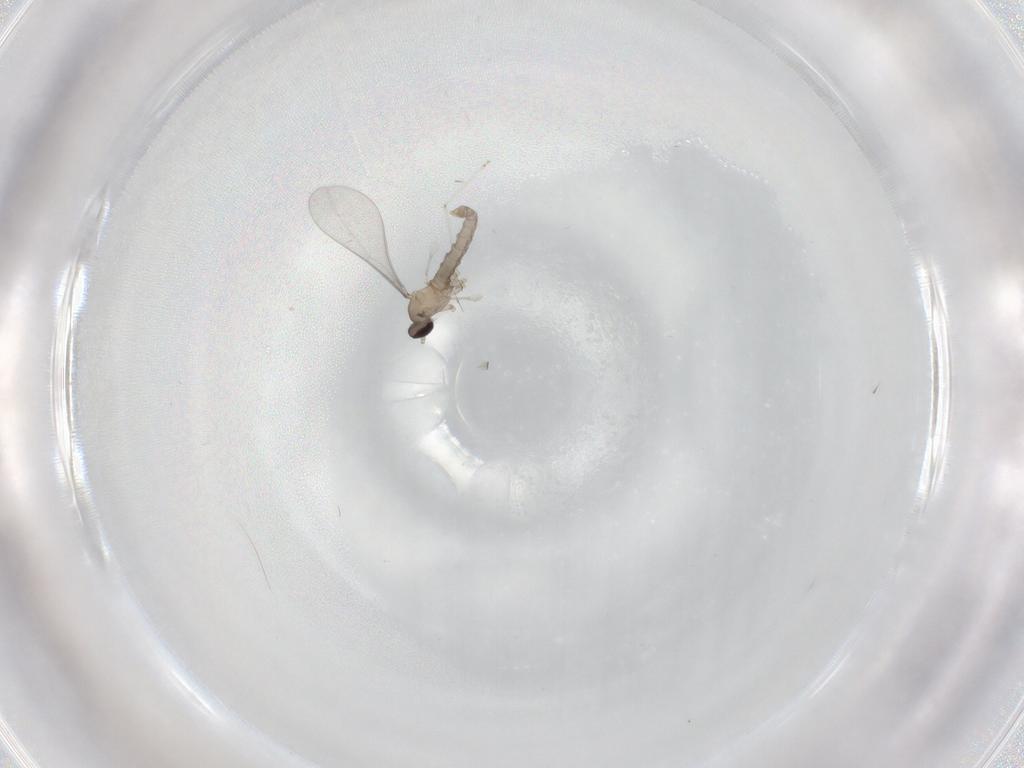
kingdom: Animalia
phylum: Arthropoda
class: Insecta
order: Diptera
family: Cecidomyiidae
